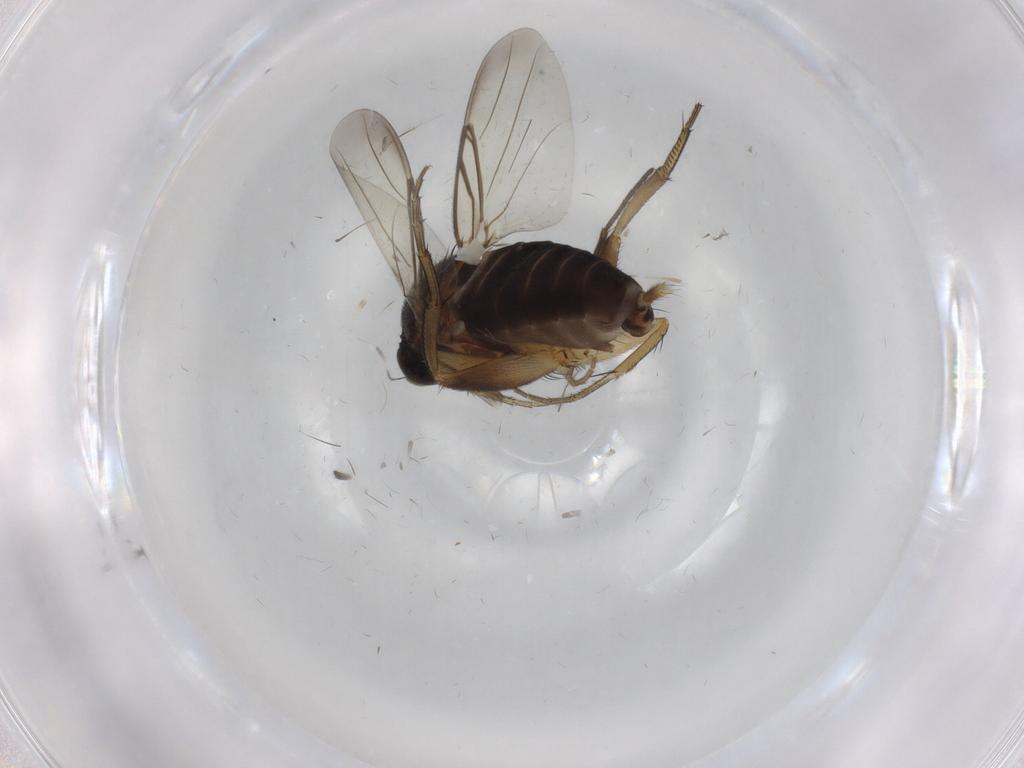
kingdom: Animalia
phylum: Arthropoda
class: Insecta
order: Diptera
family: Phoridae
